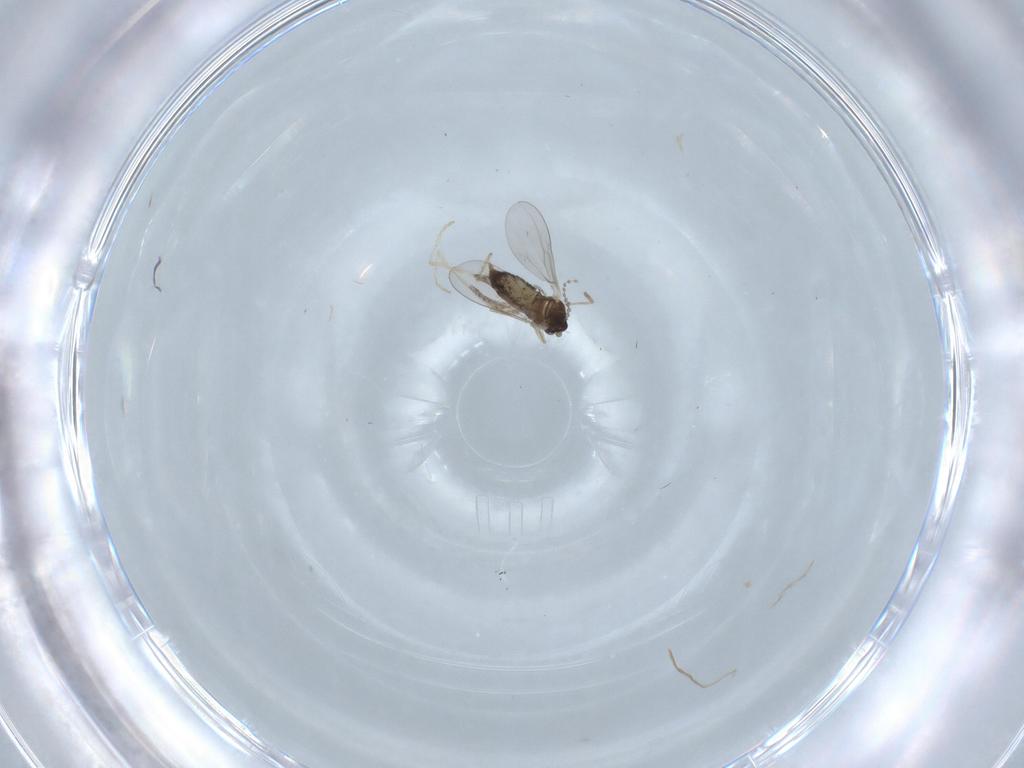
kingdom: Animalia
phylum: Arthropoda
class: Insecta
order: Diptera
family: Cecidomyiidae
